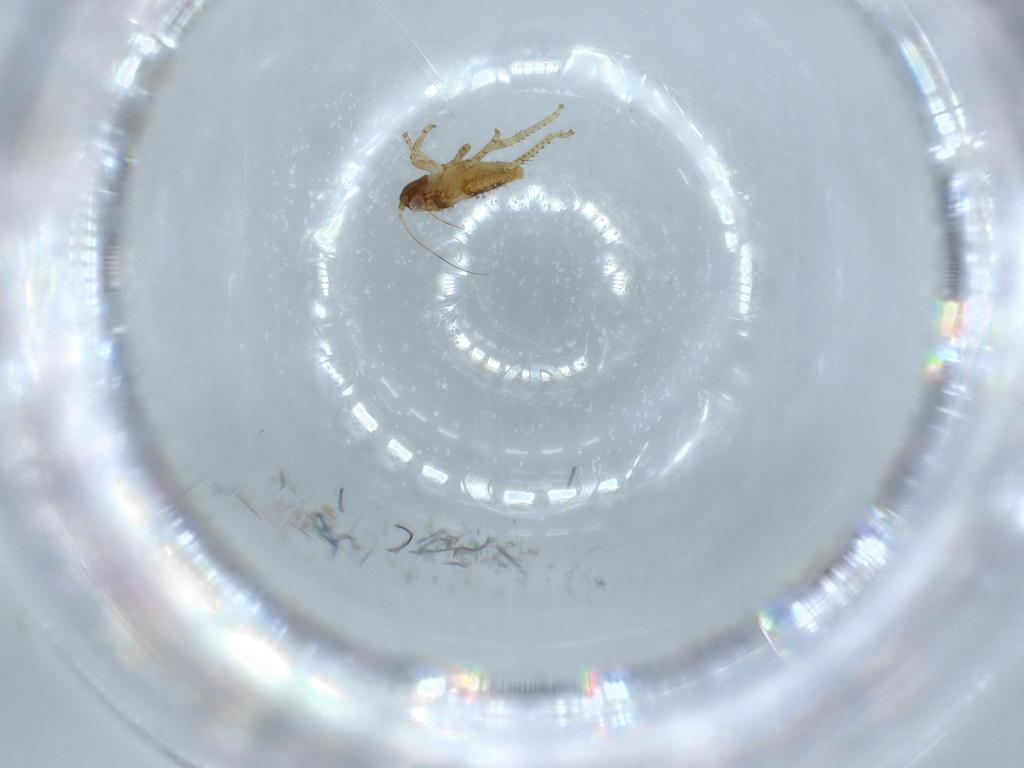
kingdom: Animalia
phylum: Arthropoda
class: Insecta
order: Hemiptera
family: Cicadellidae
